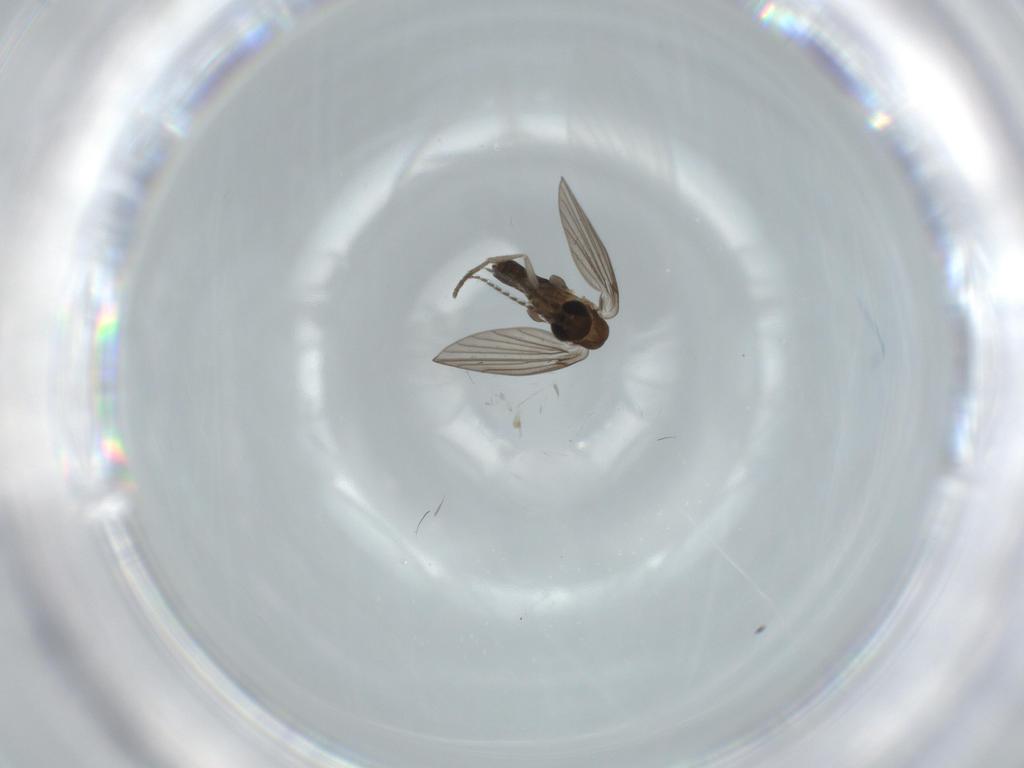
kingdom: Animalia
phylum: Arthropoda
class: Insecta
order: Diptera
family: Psychodidae
